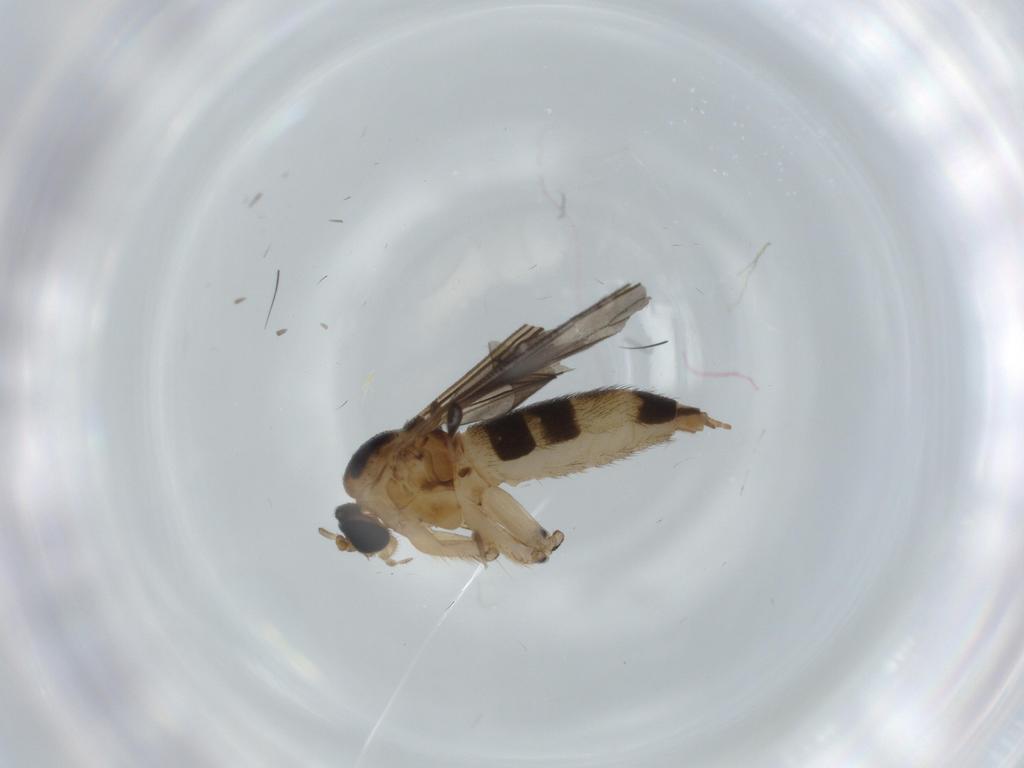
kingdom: Animalia
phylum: Arthropoda
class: Insecta
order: Diptera
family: Sciaridae
